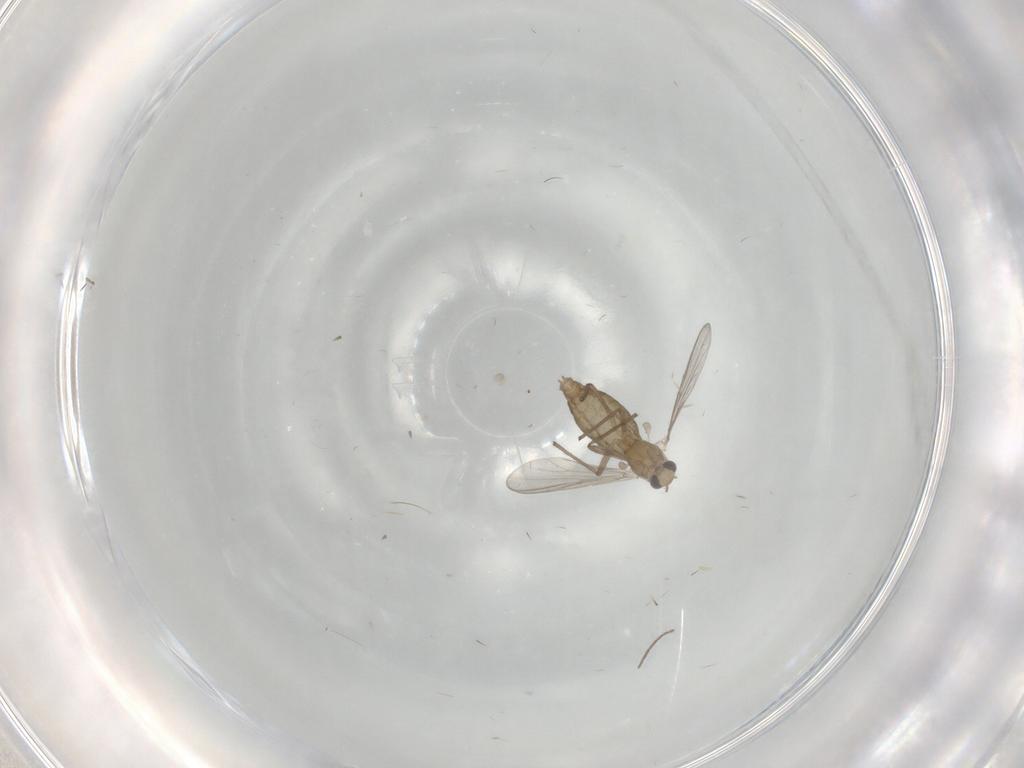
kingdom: Animalia
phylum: Arthropoda
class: Insecta
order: Diptera
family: Chironomidae
